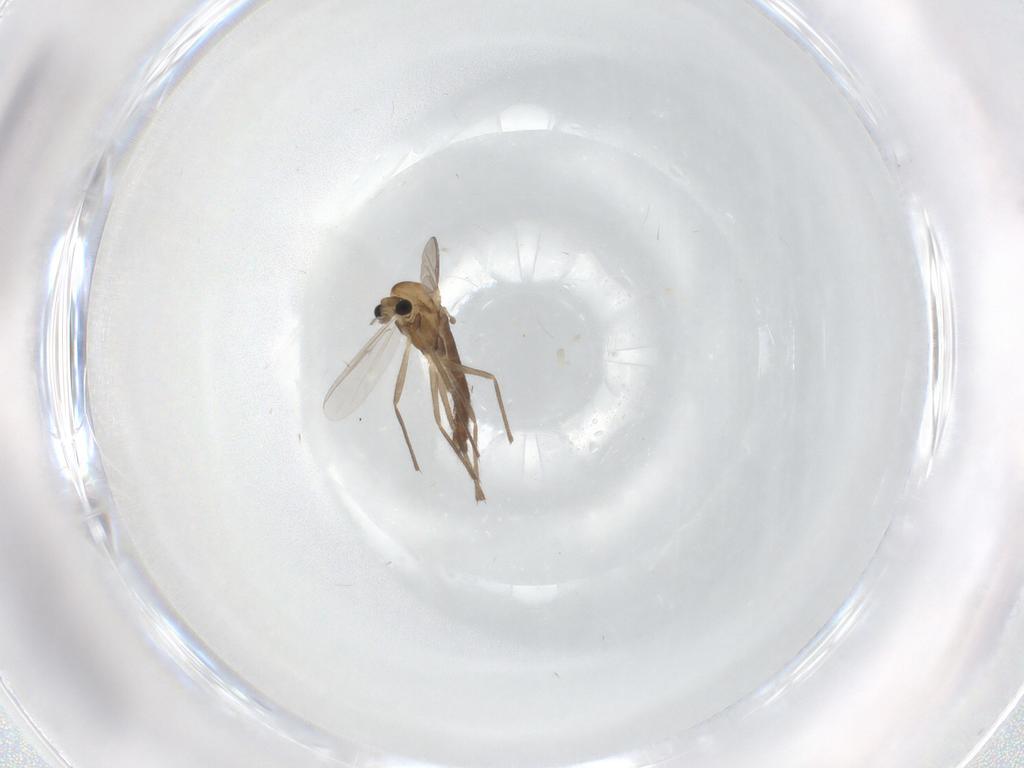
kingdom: Animalia
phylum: Arthropoda
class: Insecta
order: Diptera
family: Chironomidae
